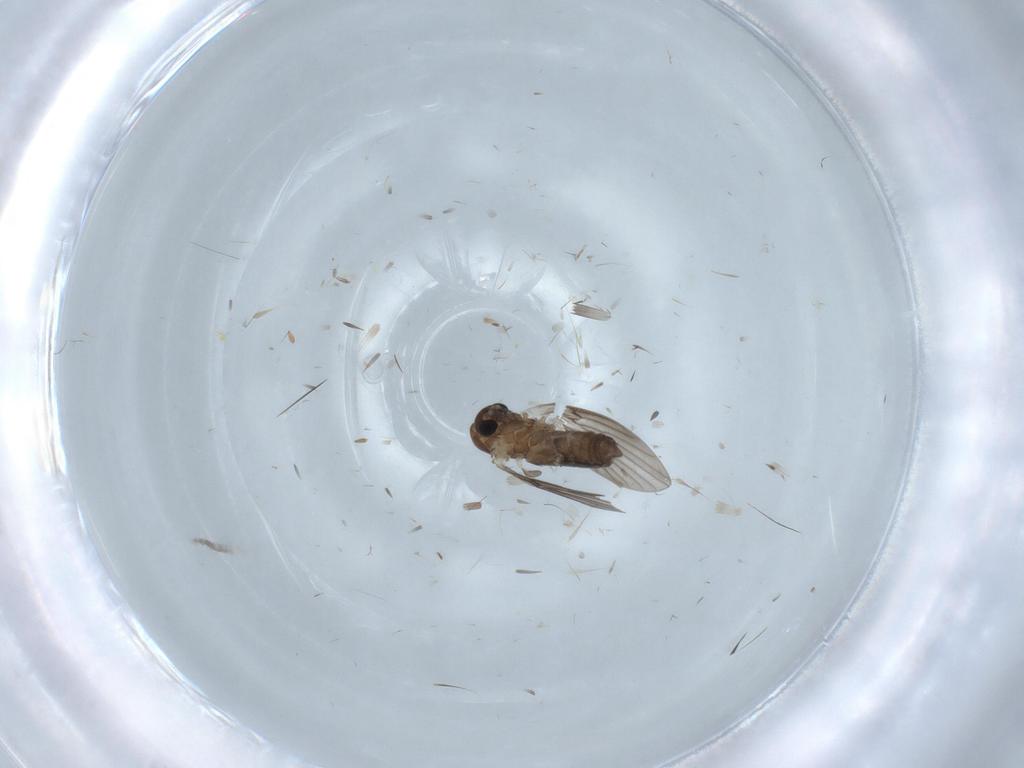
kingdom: Animalia
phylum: Arthropoda
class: Insecta
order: Diptera
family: Psychodidae
